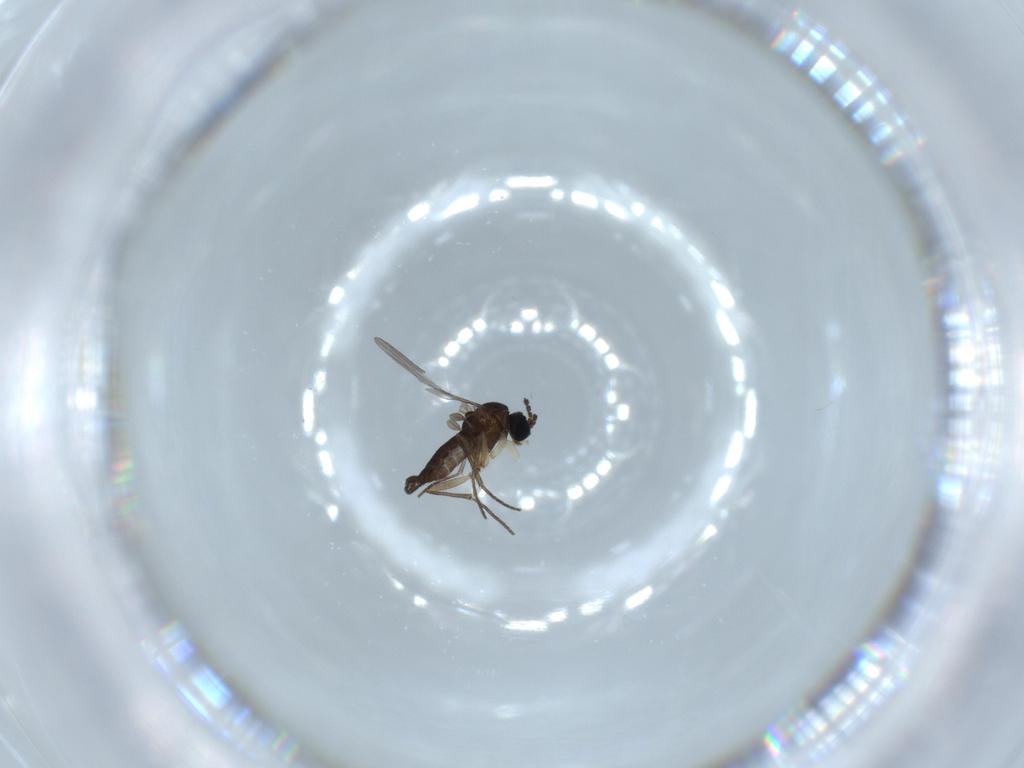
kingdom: Animalia
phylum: Arthropoda
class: Insecta
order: Diptera
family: Sciaridae
